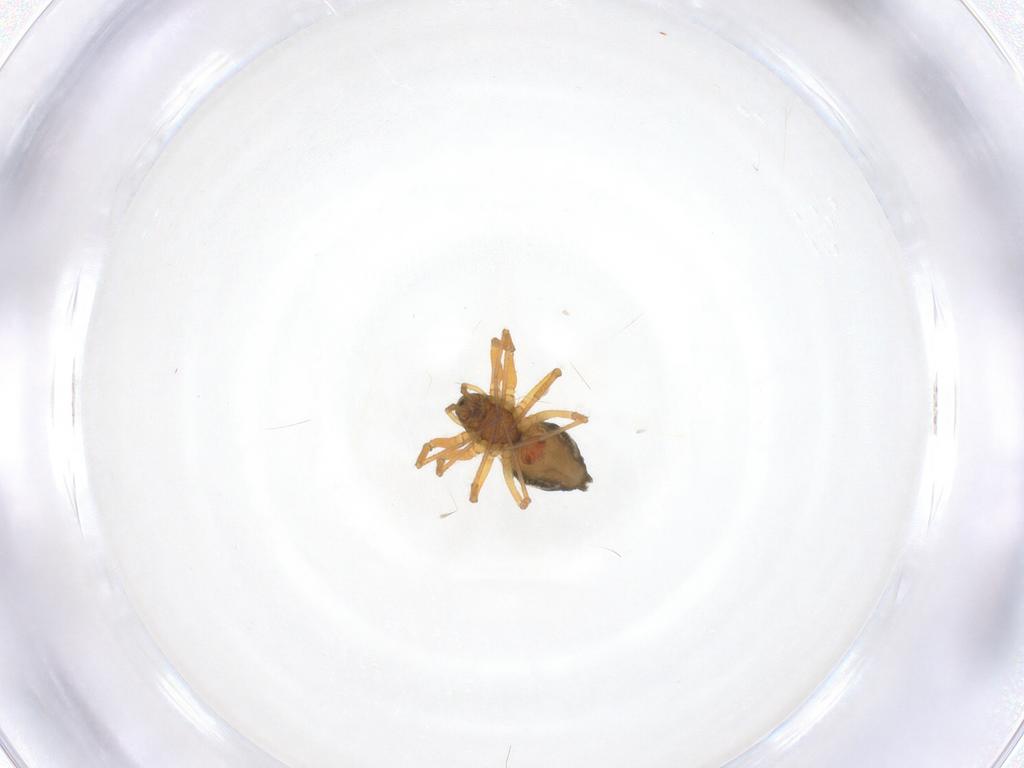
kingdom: Animalia
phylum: Arthropoda
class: Arachnida
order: Araneae
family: Linyphiidae
